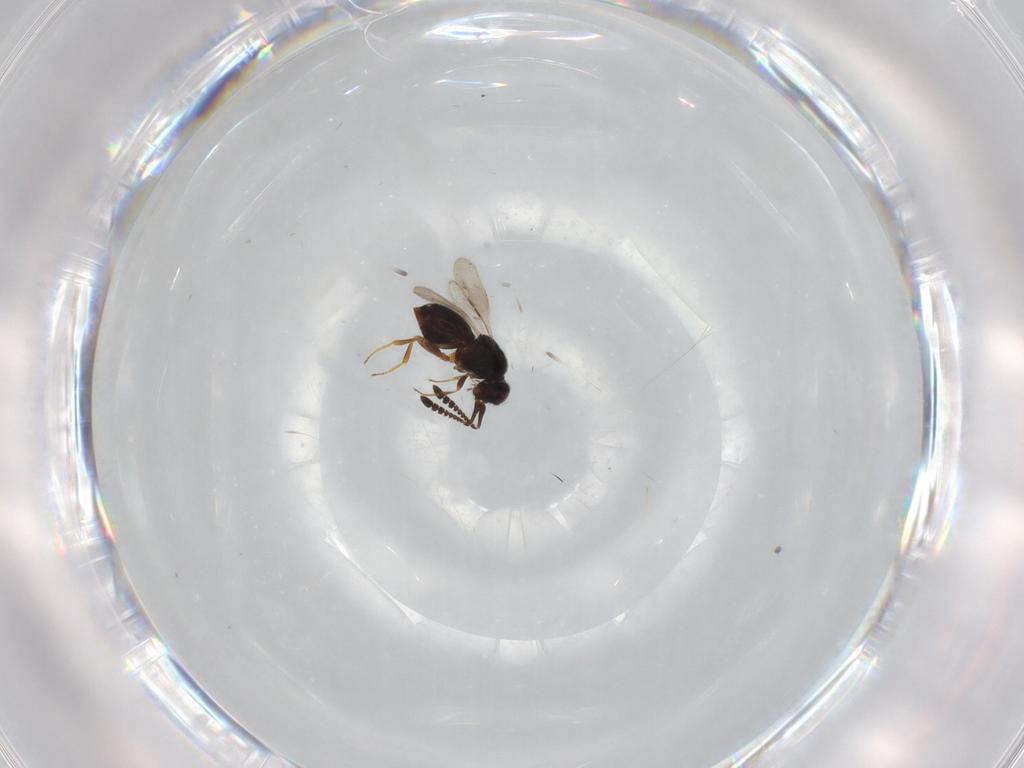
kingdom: Animalia
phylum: Arthropoda
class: Insecta
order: Hymenoptera
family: Ceraphronidae
